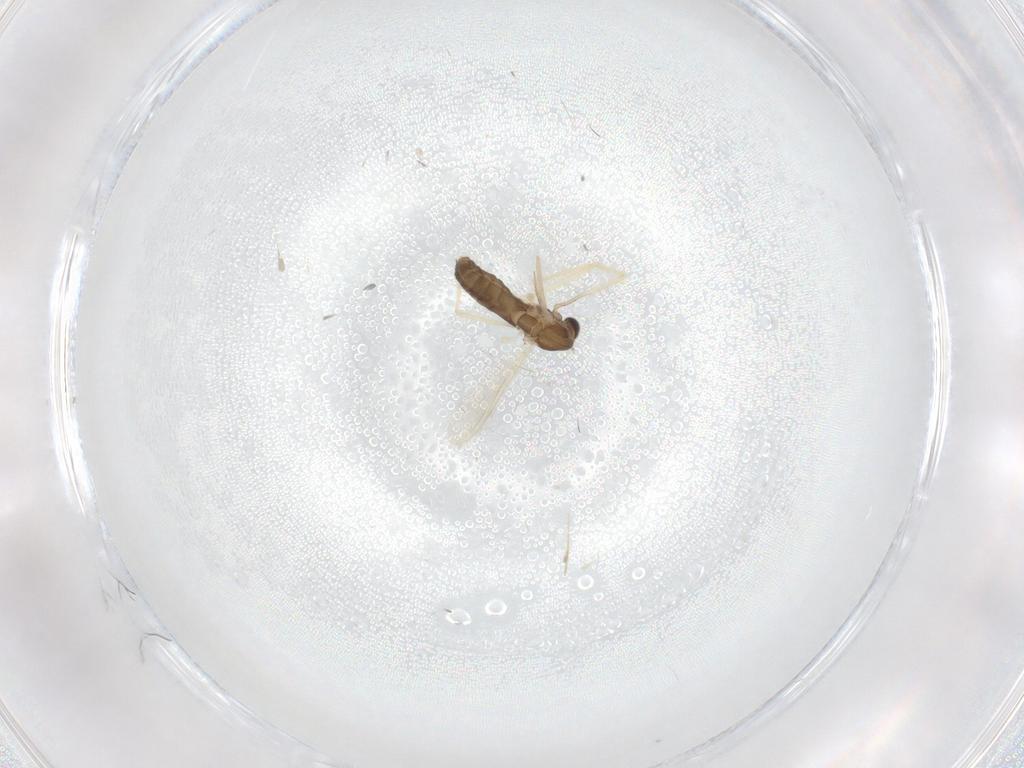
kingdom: Animalia
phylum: Arthropoda
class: Insecta
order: Diptera
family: Chironomidae
